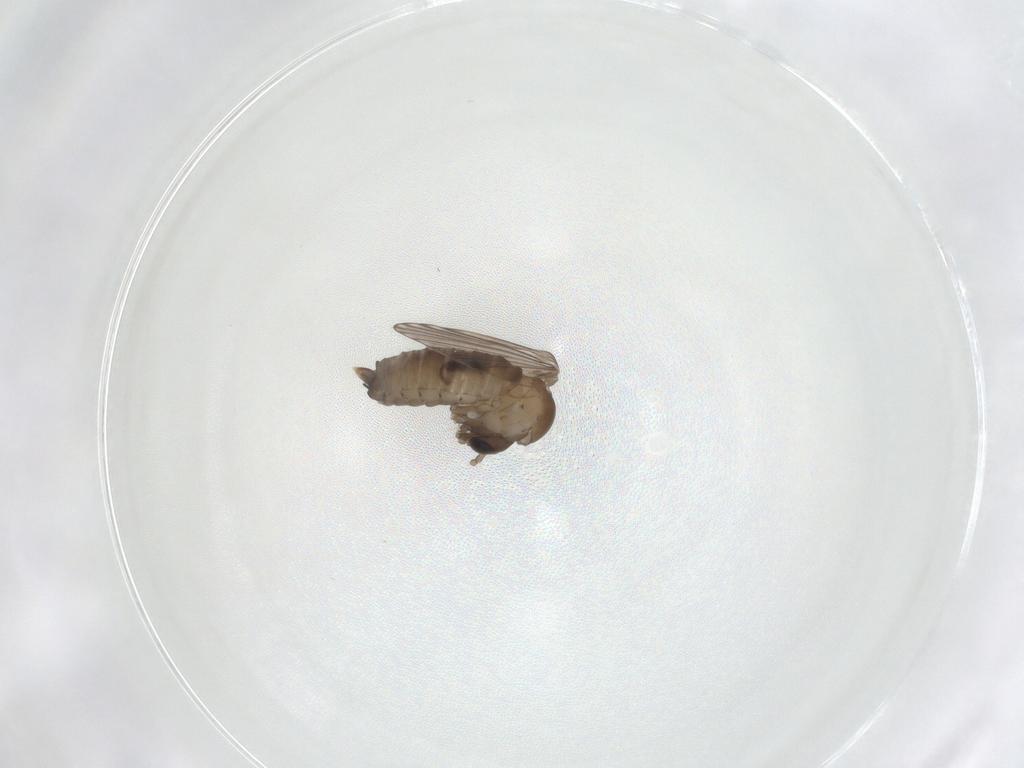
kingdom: Animalia
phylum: Arthropoda
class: Insecta
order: Diptera
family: Psychodidae
